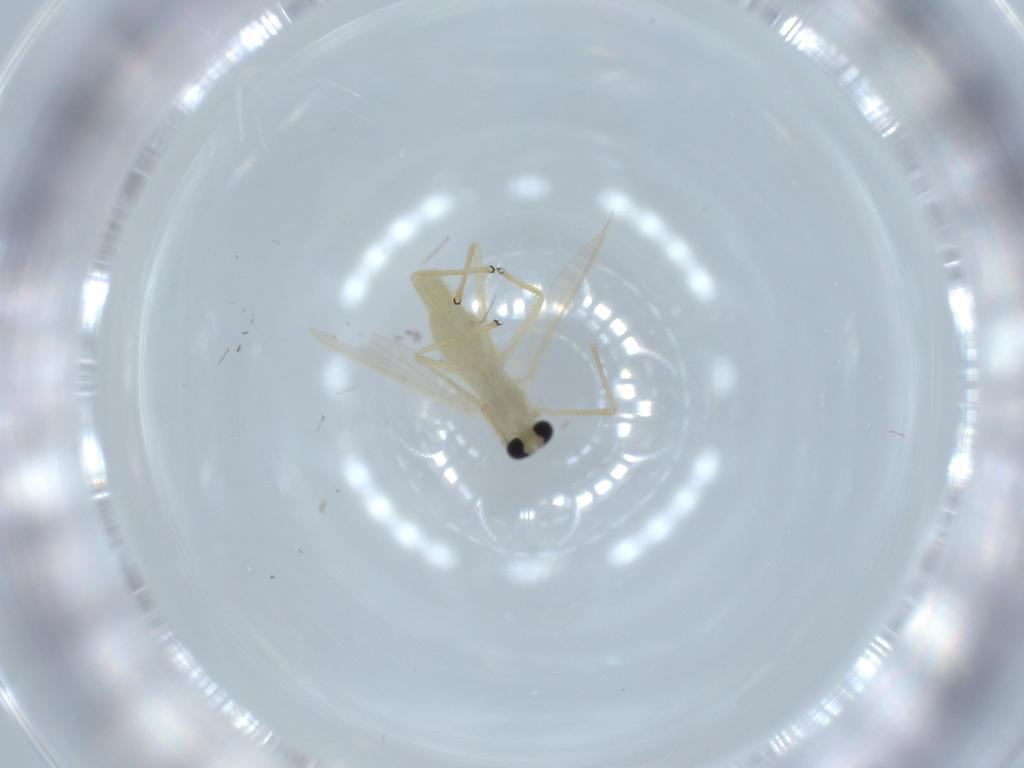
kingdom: Animalia
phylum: Arthropoda
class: Insecta
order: Diptera
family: Chironomidae
